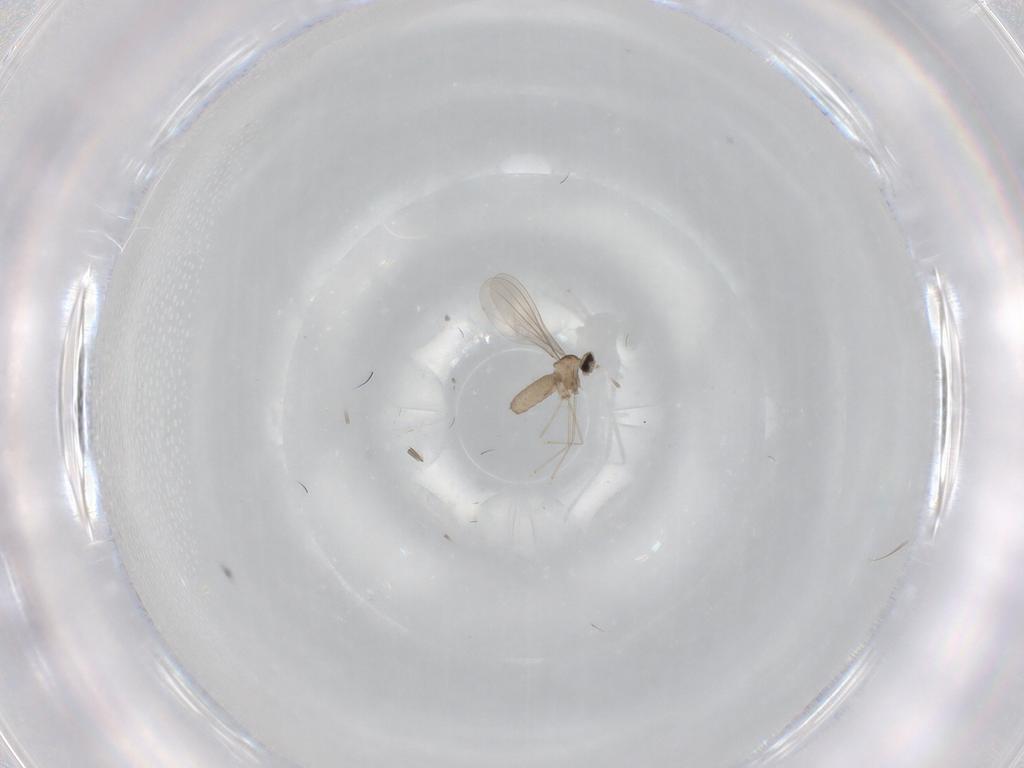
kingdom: Animalia
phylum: Arthropoda
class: Insecta
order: Diptera
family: Cecidomyiidae
